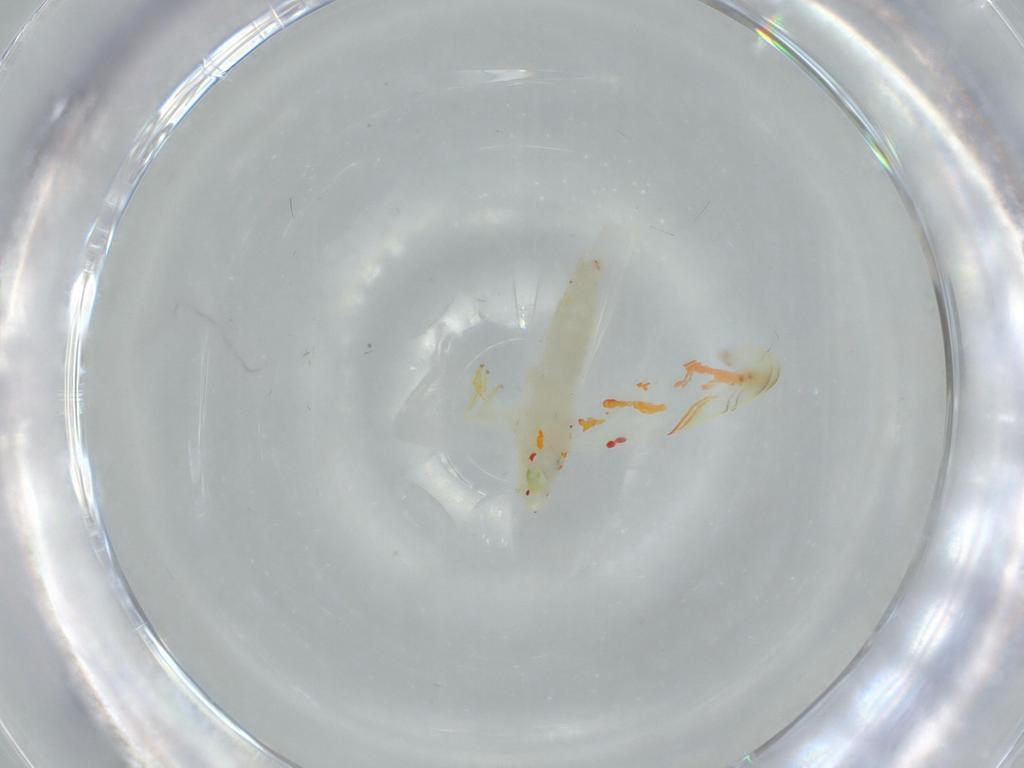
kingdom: Animalia
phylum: Arthropoda
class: Insecta
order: Hemiptera
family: Cicadellidae
